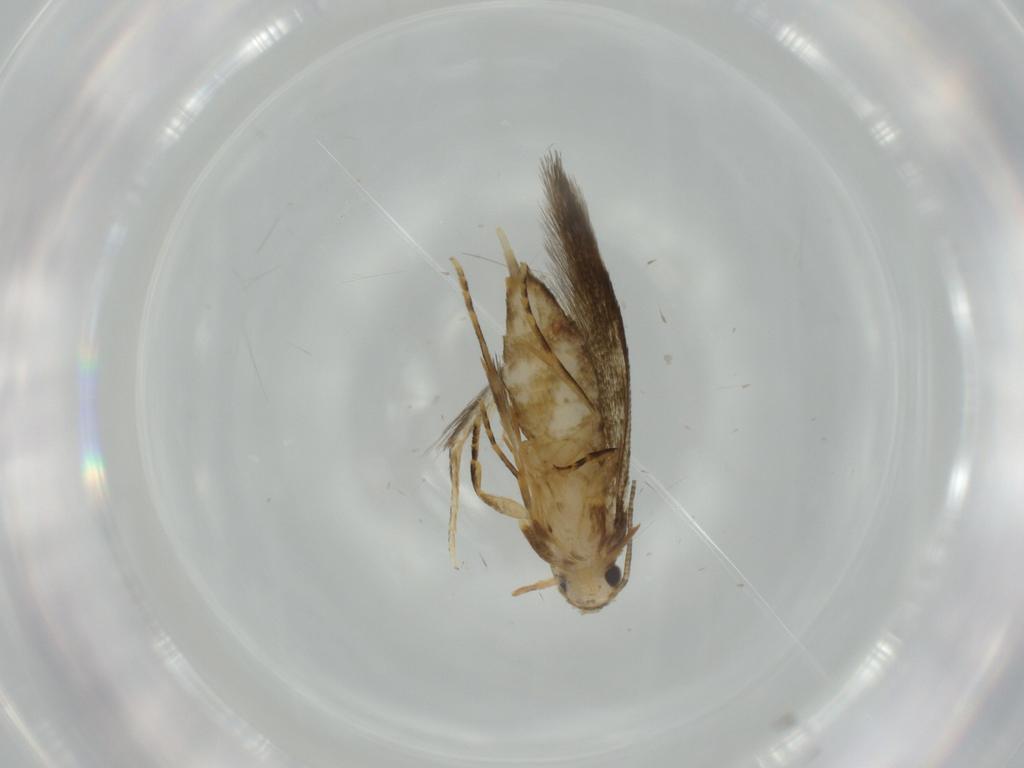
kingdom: Animalia
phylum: Arthropoda
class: Insecta
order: Lepidoptera
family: Tineidae
